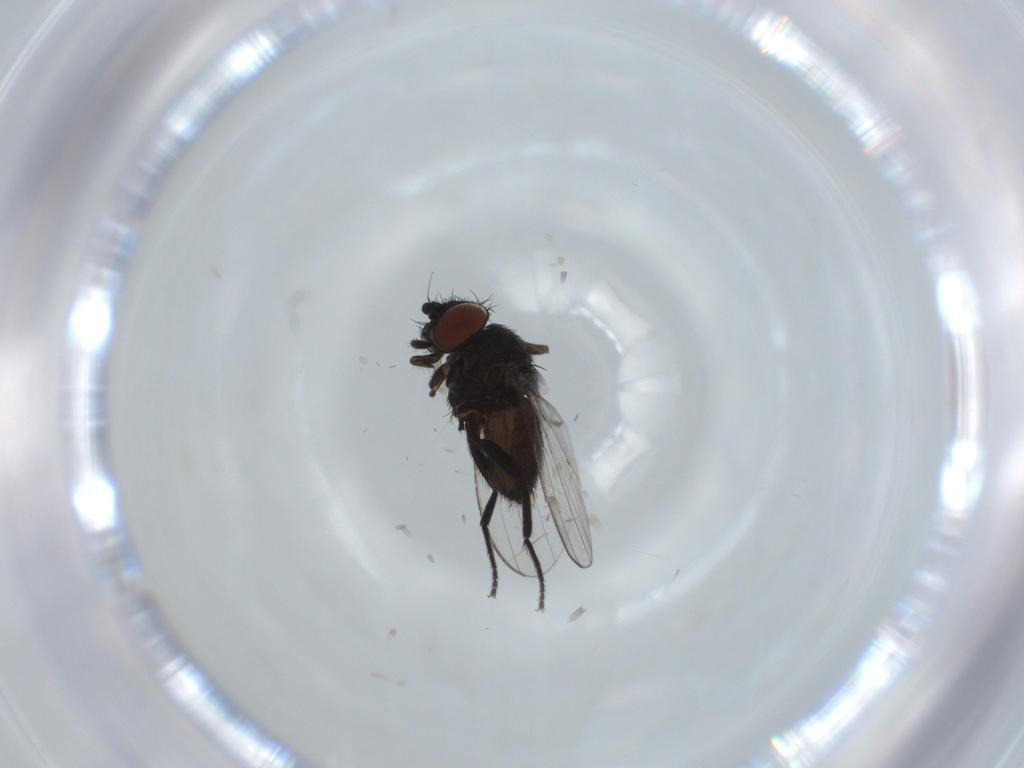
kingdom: Animalia
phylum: Arthropoda
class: Insecta
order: Diptera
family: Milichiidae
